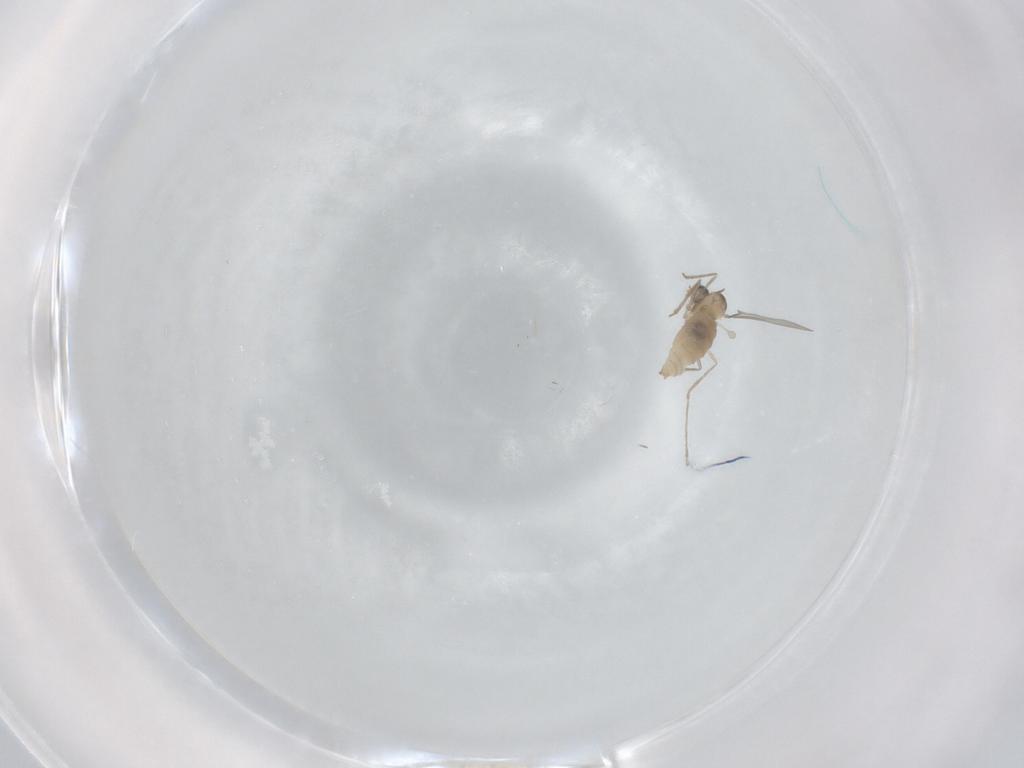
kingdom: Animalia
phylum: Arthropoda
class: Insecta
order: Diptera
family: Cecidomyiidae
